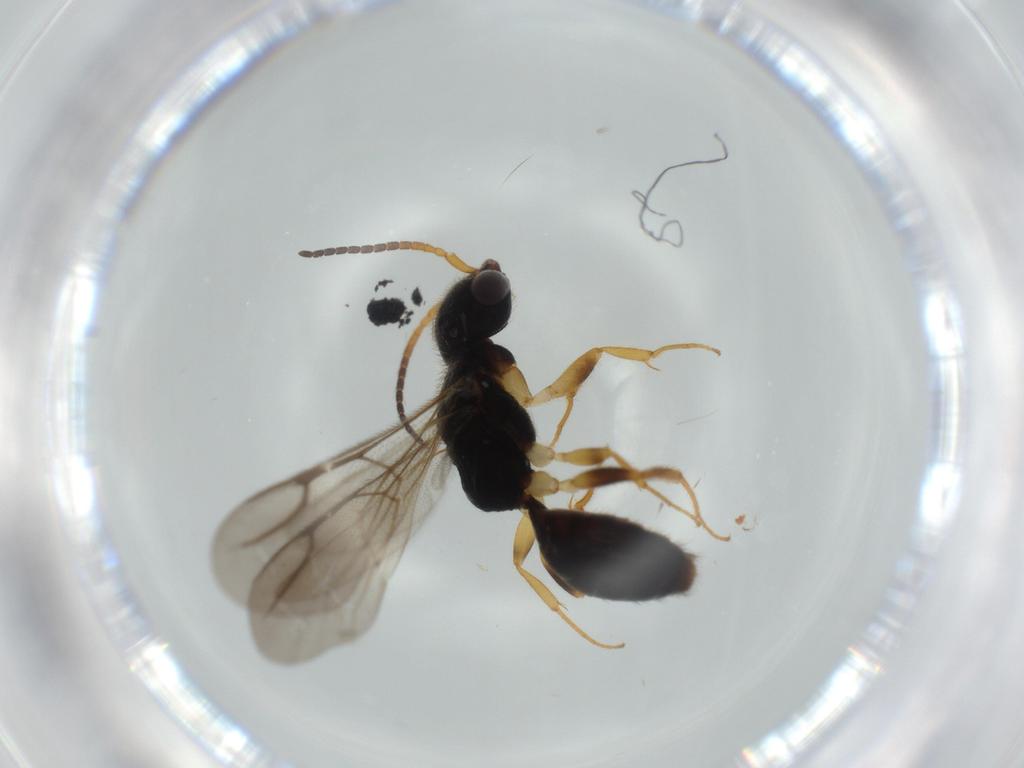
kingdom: Animalia
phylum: Arthropoda
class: Insecta
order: Hymenoptera
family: Bethylidae
